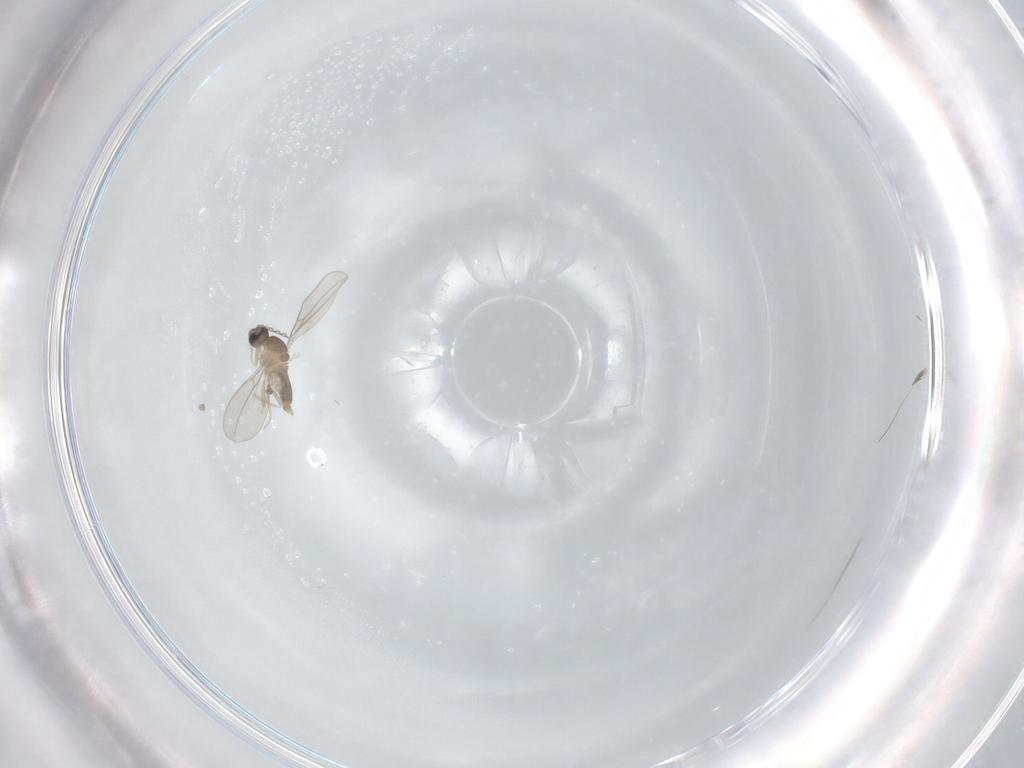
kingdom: Animalia
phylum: Arthropoda
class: Insecta
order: Diptera
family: Cecidomyiidae
